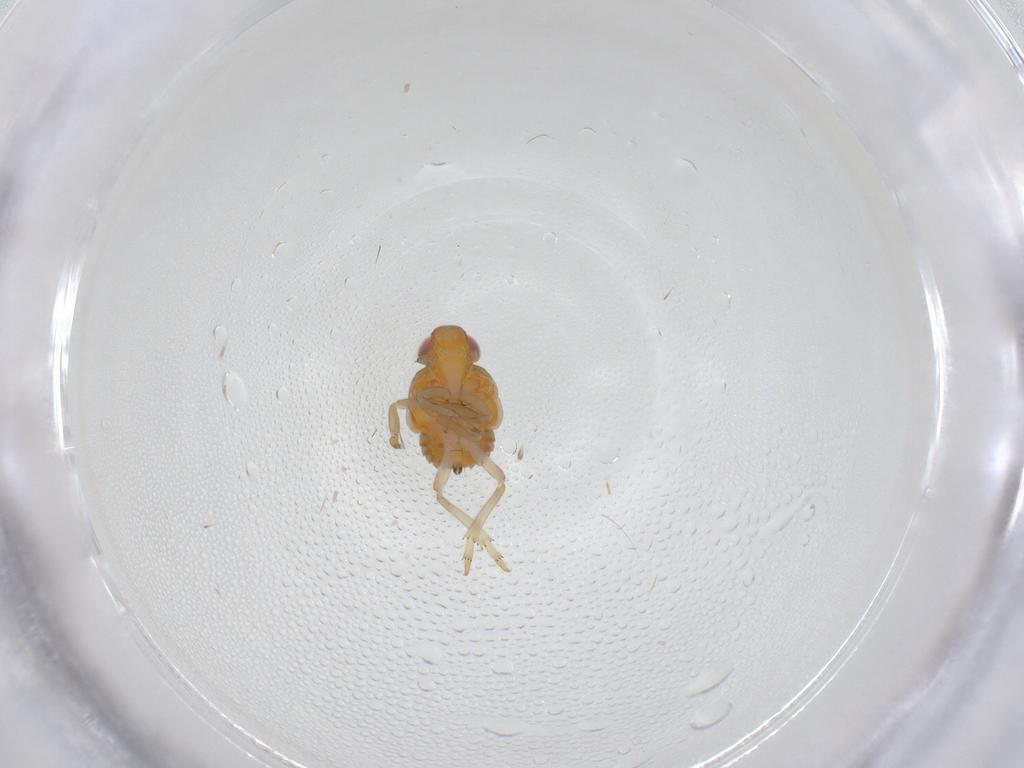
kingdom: Animalia
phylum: Arthropoda
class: Insecta
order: Hemiptera
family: Fulgoroidea_incertae_sedis
